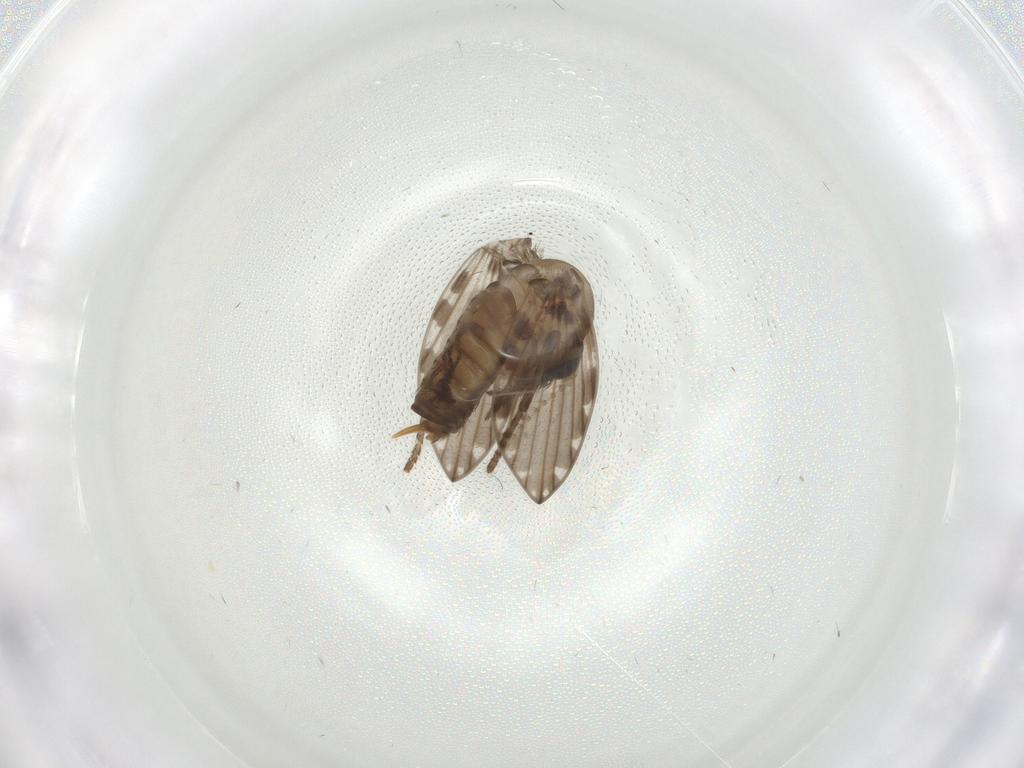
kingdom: Animalia
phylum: Arthropoda
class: Insecta
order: Diptera
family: Psychodidae
